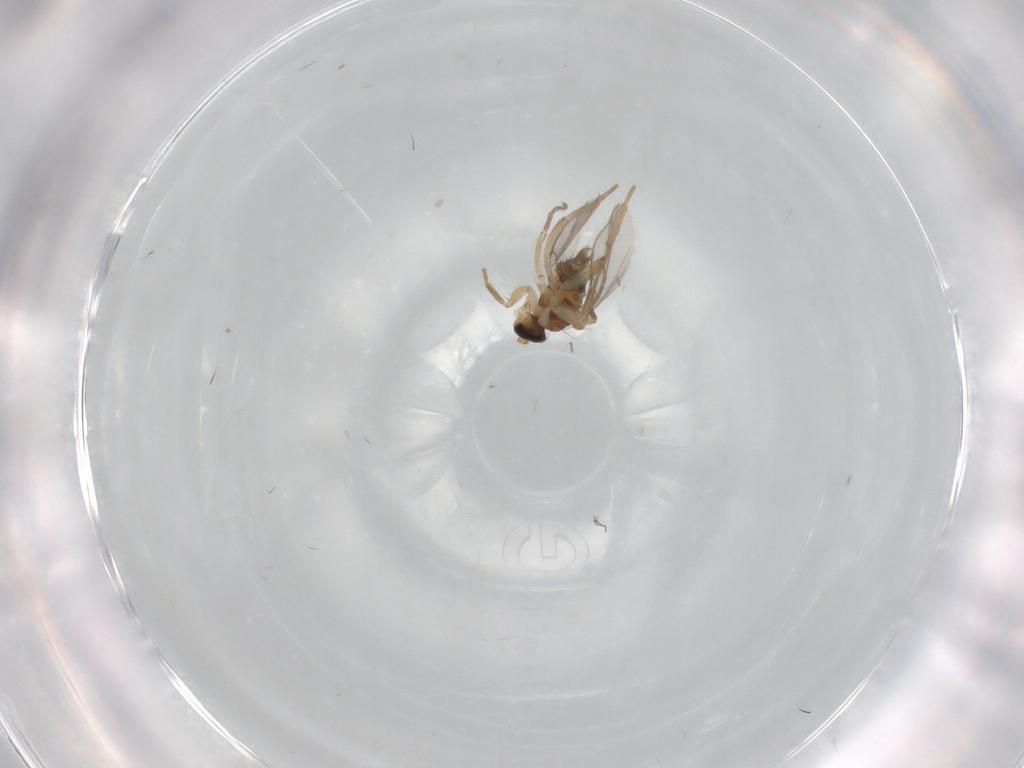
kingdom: Animalia
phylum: Arthropoda
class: Insecta
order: Diptera
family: Hybotidae
